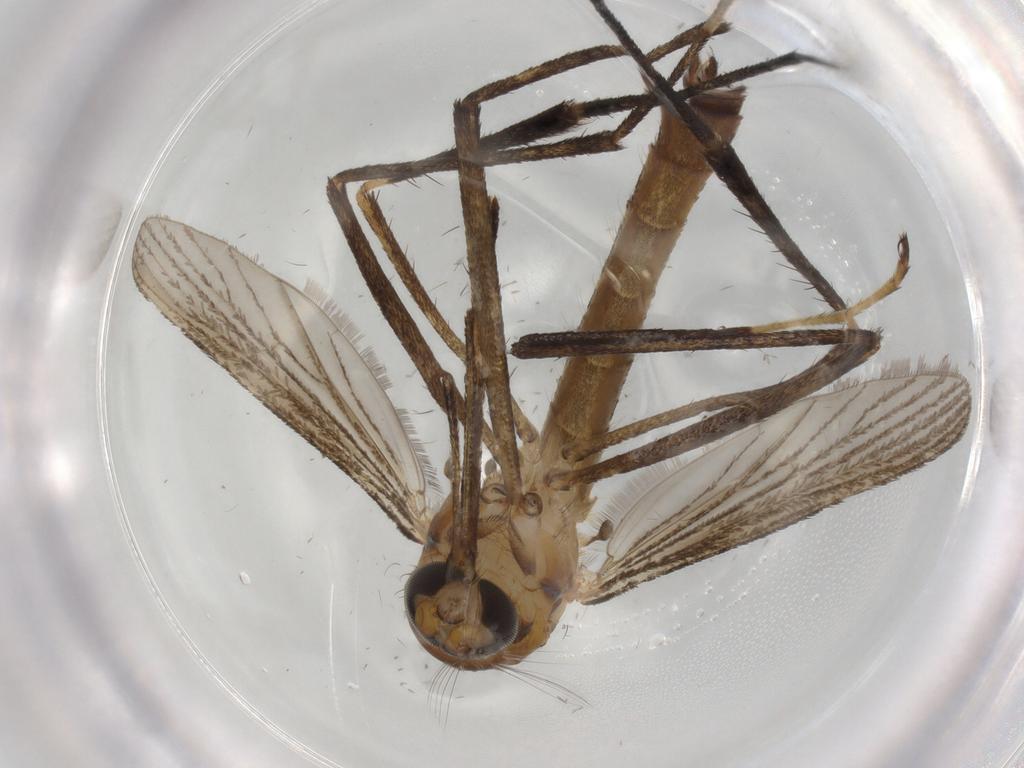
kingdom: Animalia
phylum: Arthropoda
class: Insecta
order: Diptera
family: Cecidomyiidae
